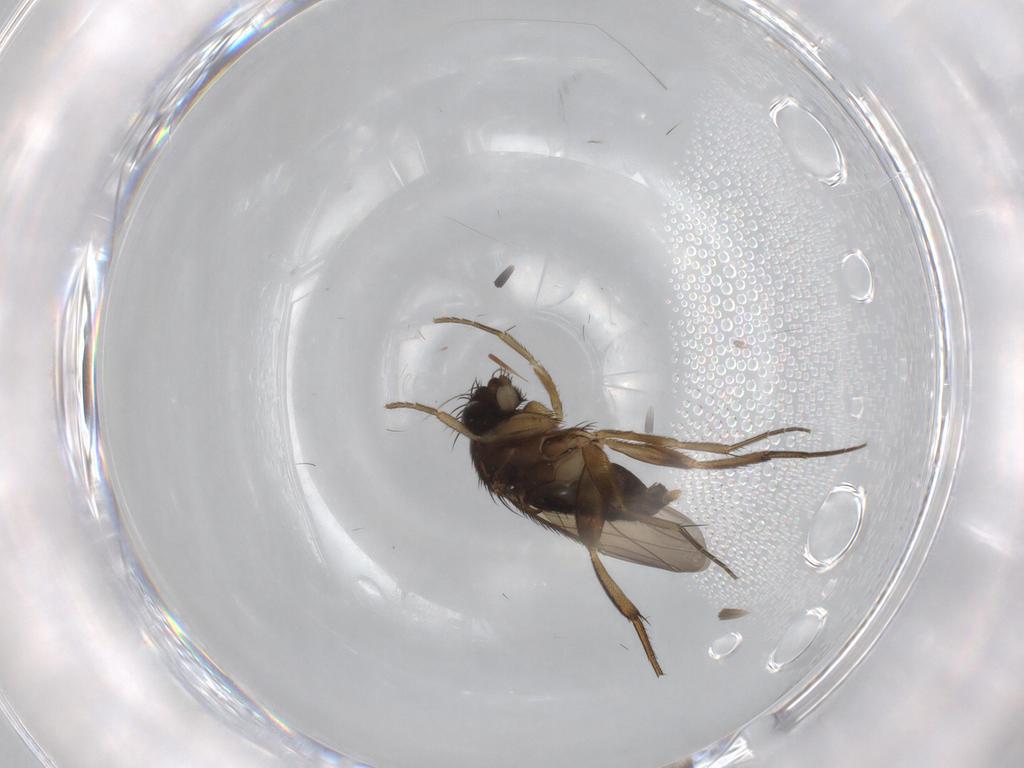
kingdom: Animalia
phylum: Arthropoda
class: Insecta
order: Diptera
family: Phoridae
